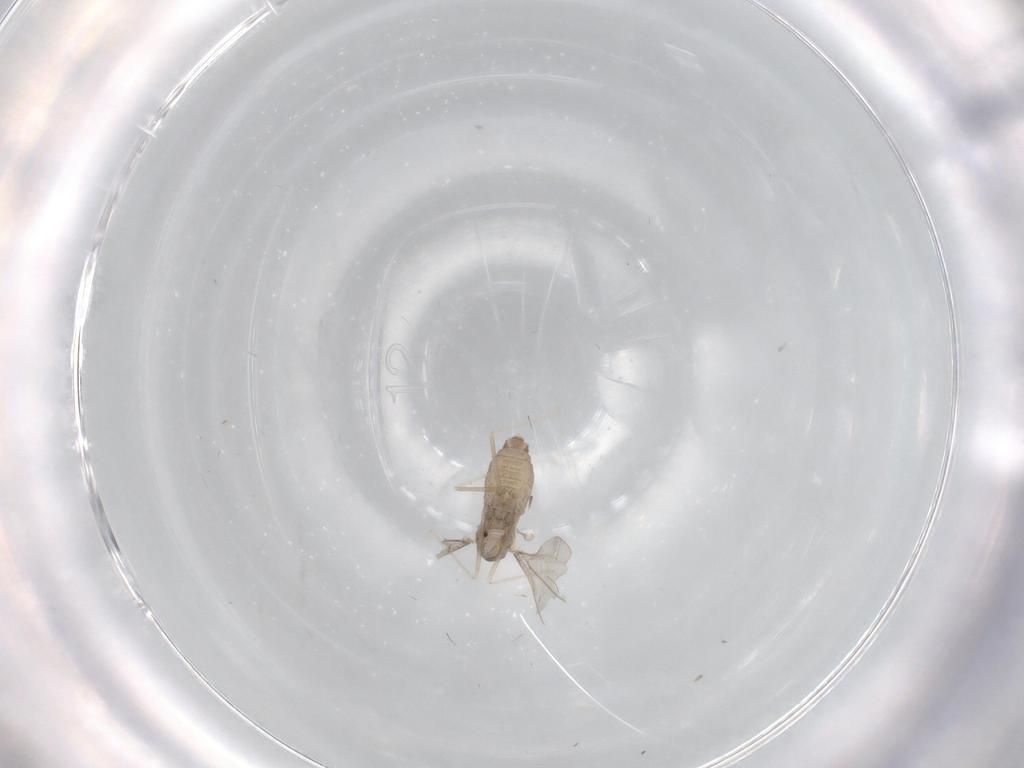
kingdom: Animalia
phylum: Arthropoda
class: Insecta
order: Diptera
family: Cecidomyiidae
